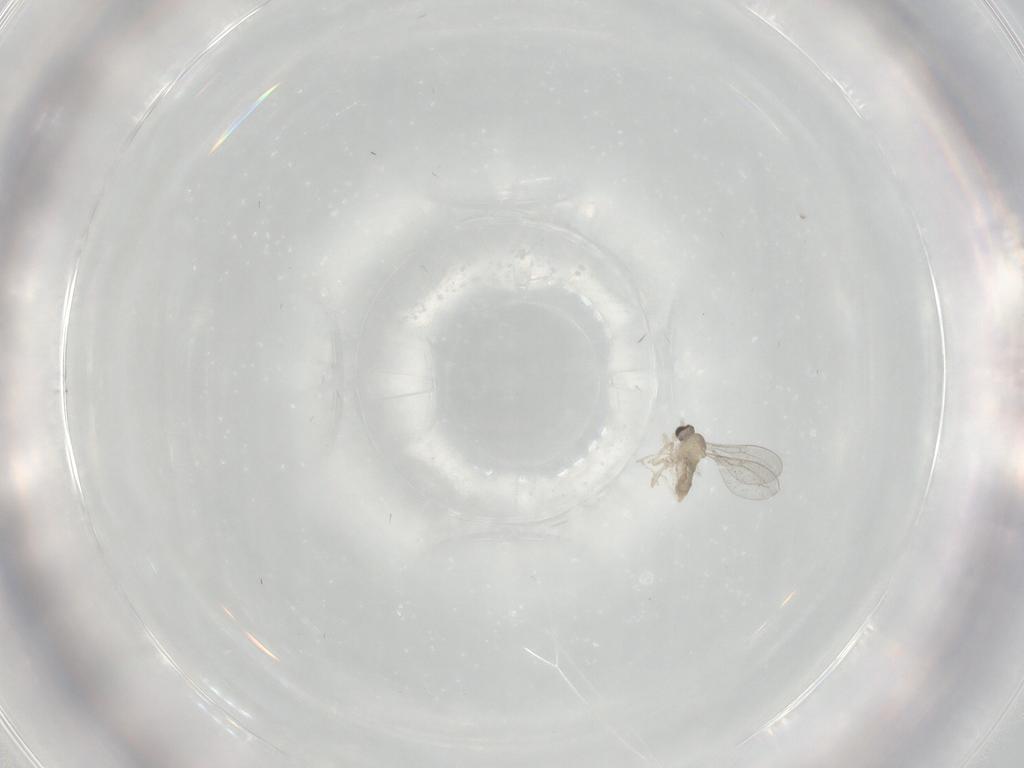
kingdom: Animalia
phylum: Arthropoda
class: Insecta
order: Diptera
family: Cecidomyiidae
